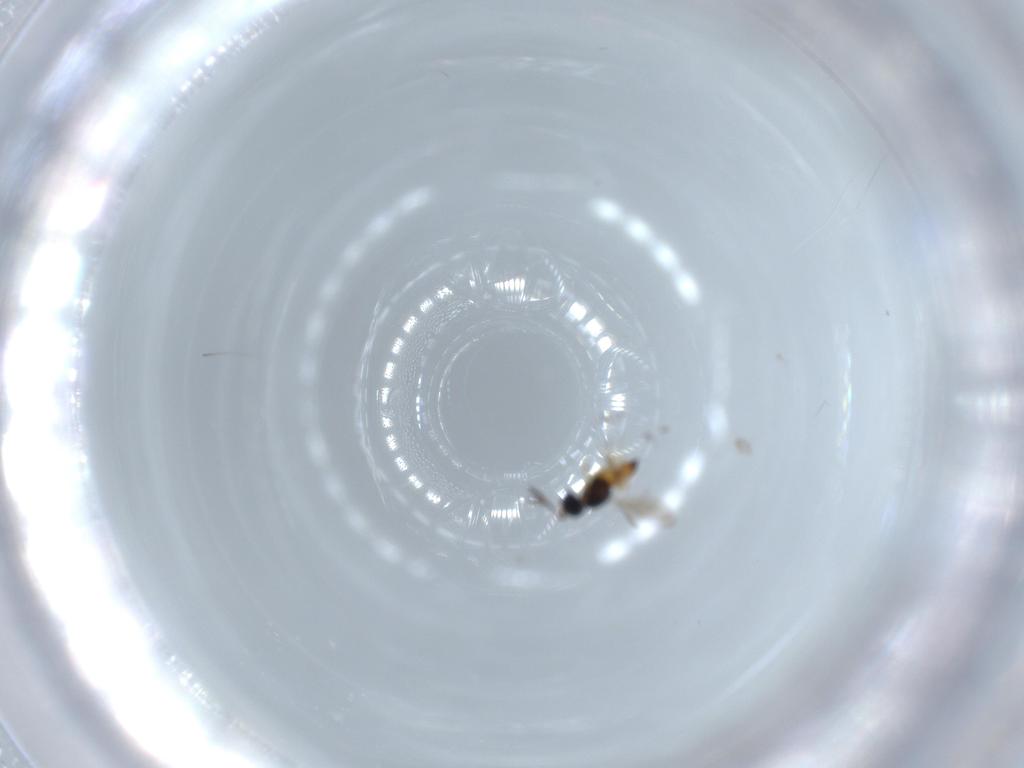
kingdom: Animalia
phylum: Arthropoda
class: Insecta
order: Hymenoptera
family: Scelionidae
